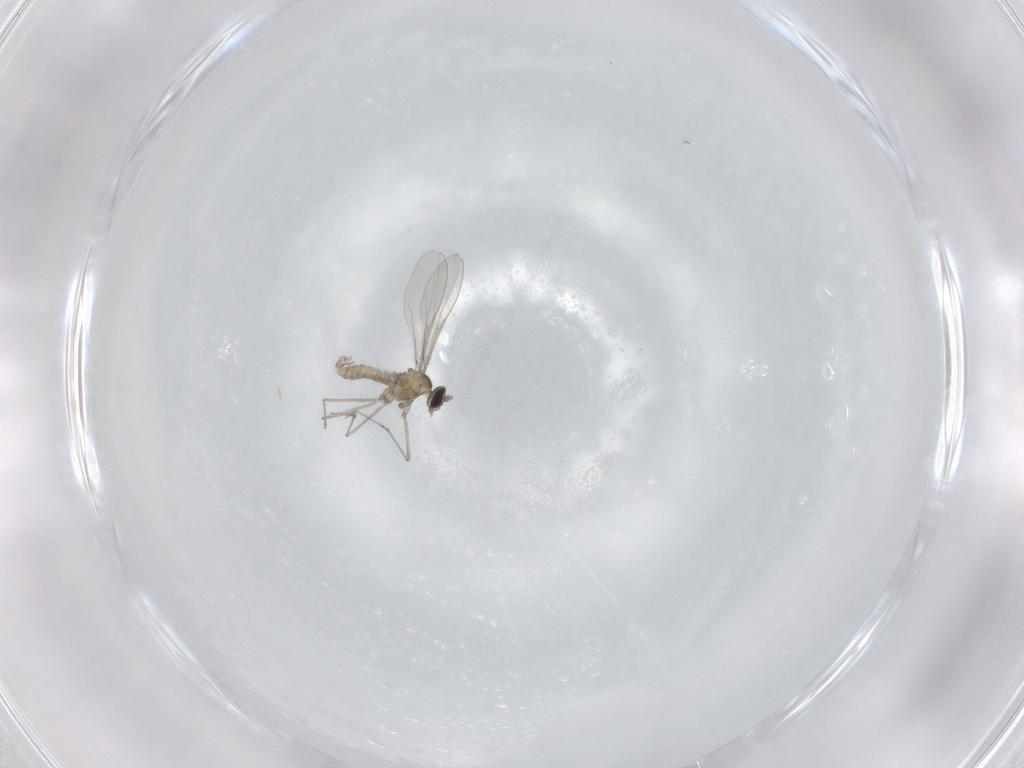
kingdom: Animalia
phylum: Arthropoda
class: Insecta
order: Diptera
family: Cecidomyiidae
